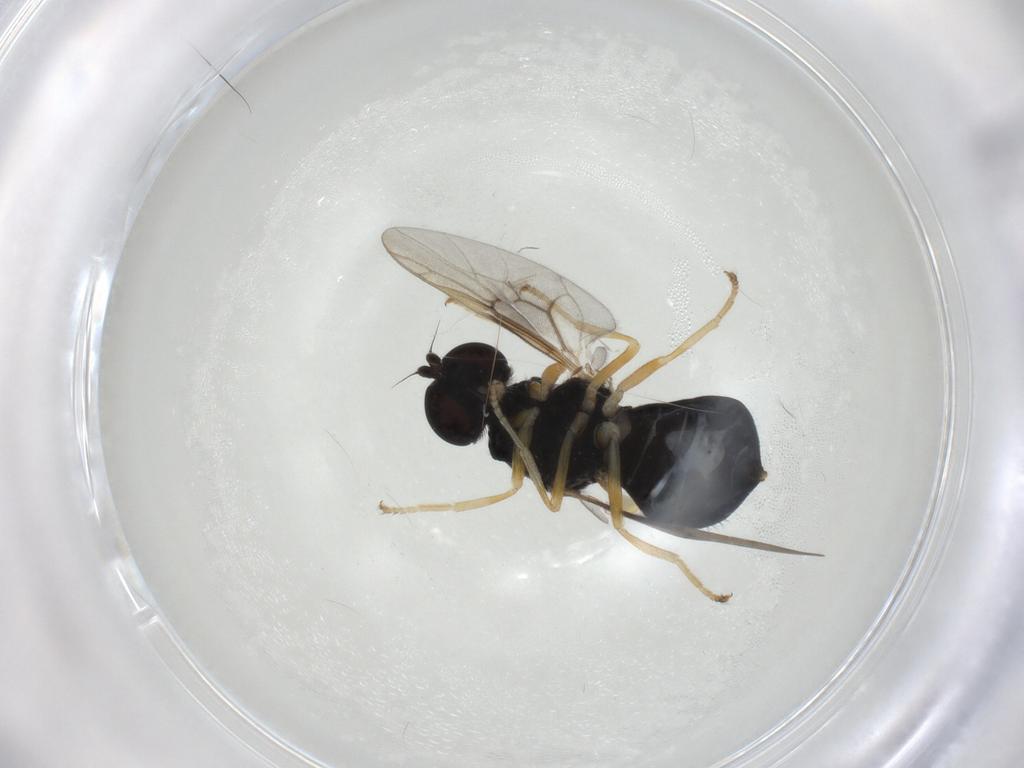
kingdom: Animalia
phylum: Arthropoda
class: Insecta
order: Diptera
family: Stratiomyidae
